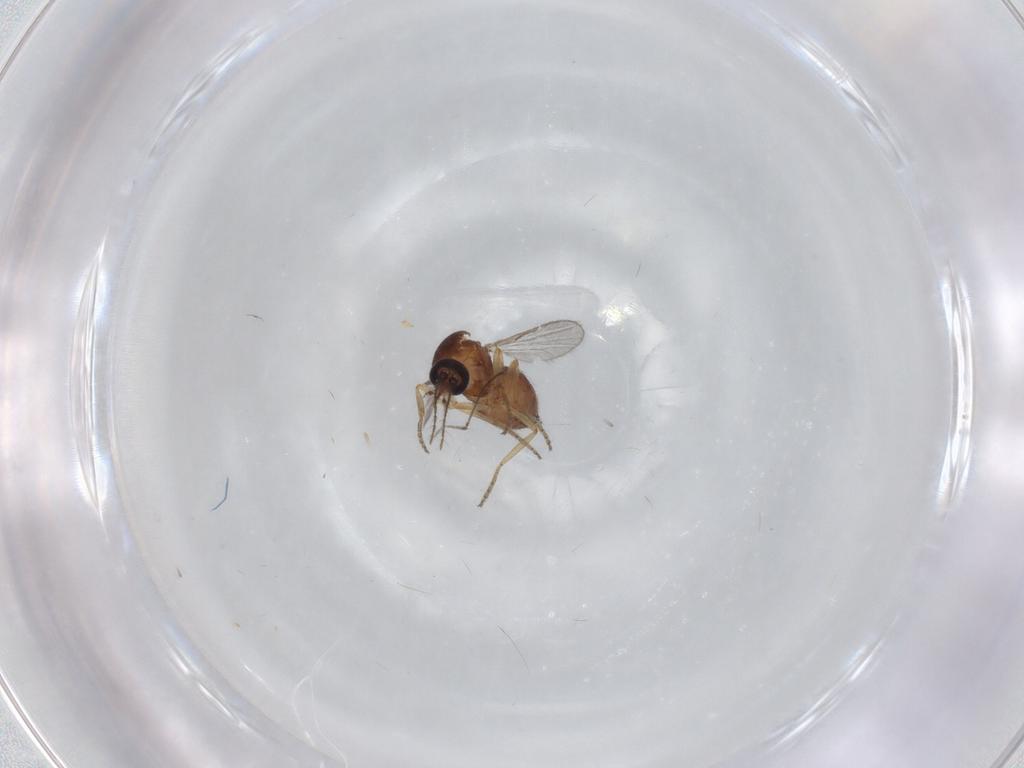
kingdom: Animalia
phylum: Arthropoda
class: Insecta
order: Diptera
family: Ceratopogonidae
